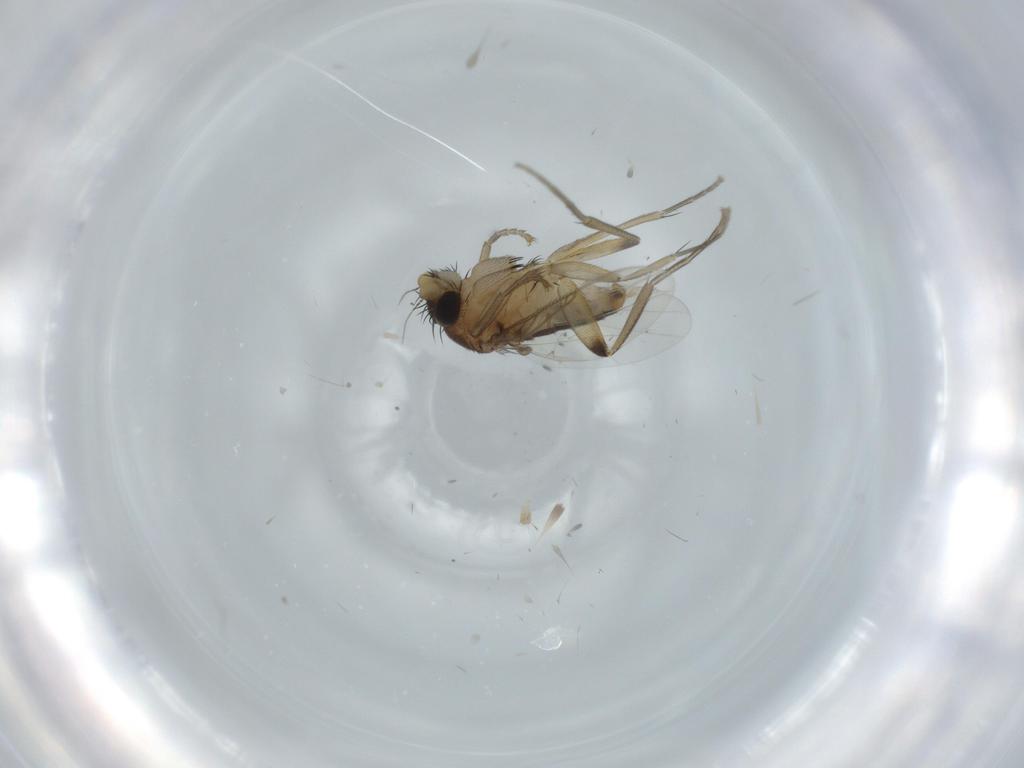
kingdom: Animalia
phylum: Arthropoda
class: Insecta
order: Diptera
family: Phoridae
